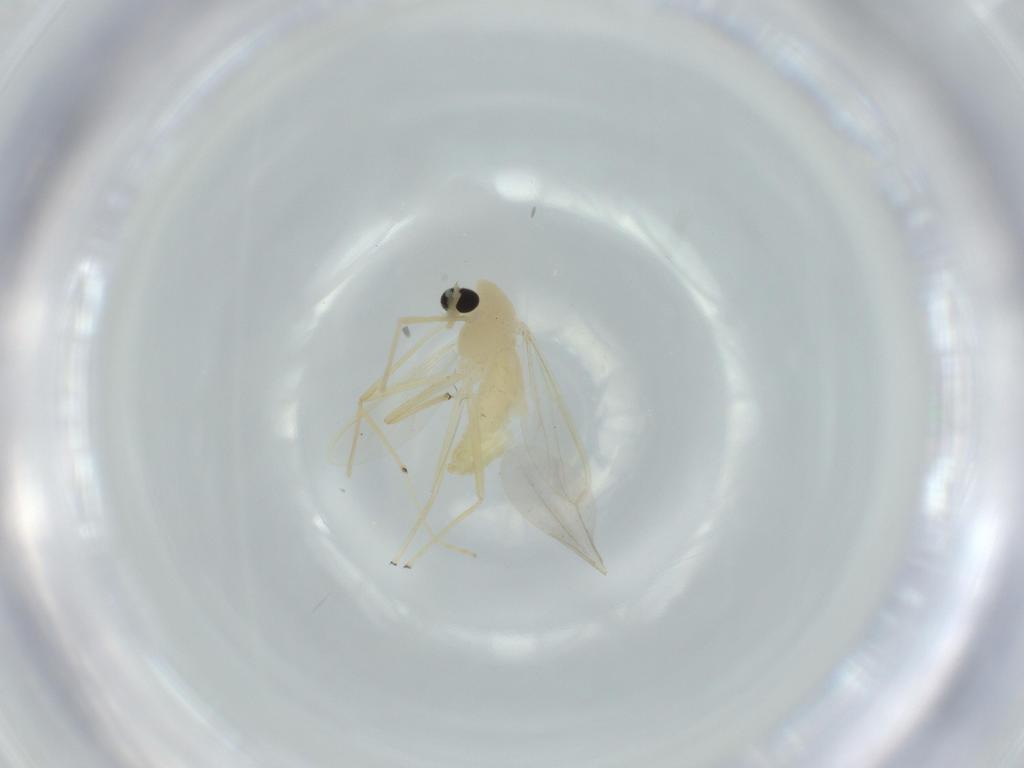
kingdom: Animalia
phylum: Arthropoda
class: Insecta
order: Diptera
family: Chironomidae
